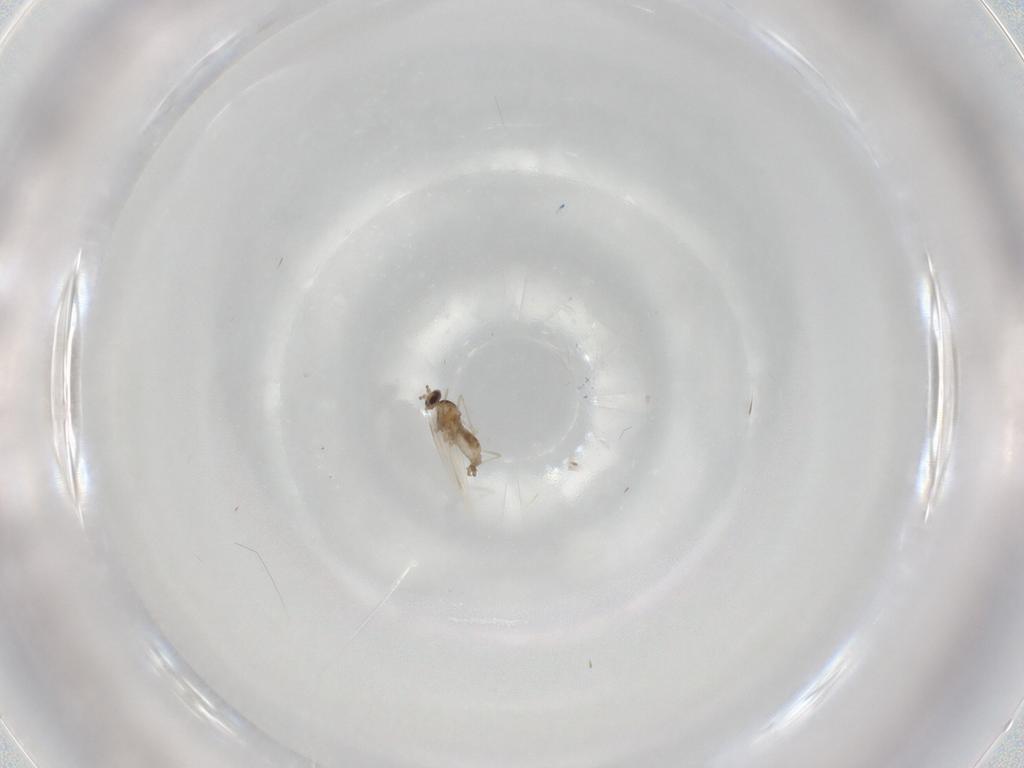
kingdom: Animalia
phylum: Arthropoda
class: Insecta
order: Diptera
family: Cecidomyiidae
